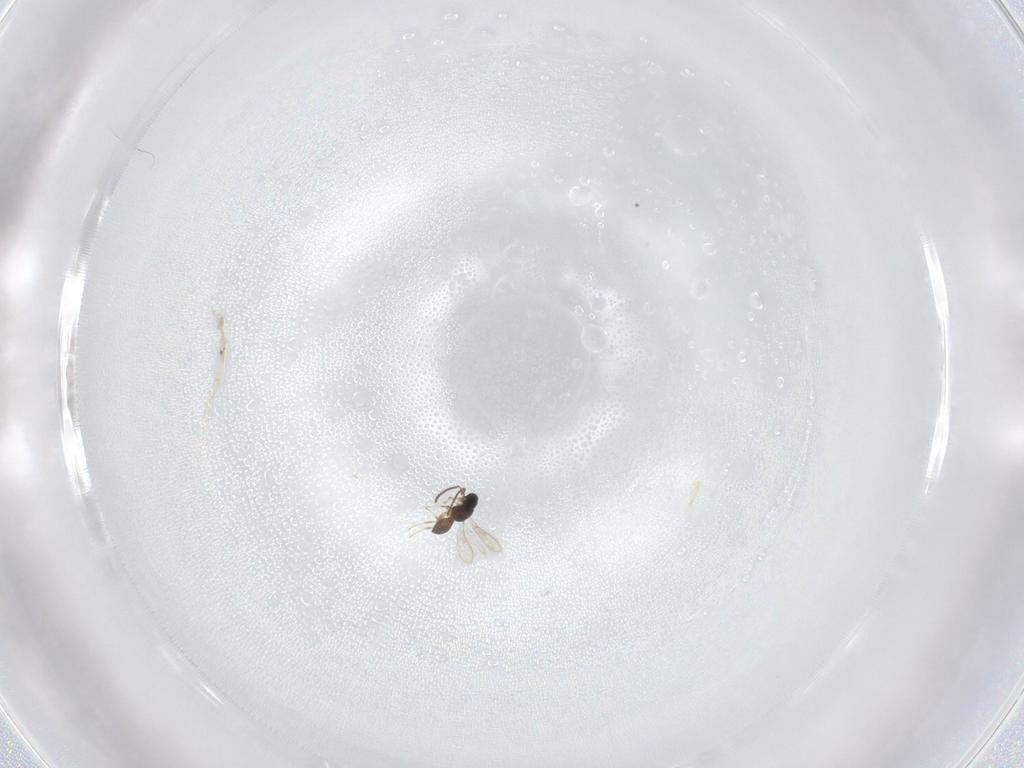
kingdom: Animalia
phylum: Arthropoda
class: Insecta
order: Hymenoptera
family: Scelionidae
